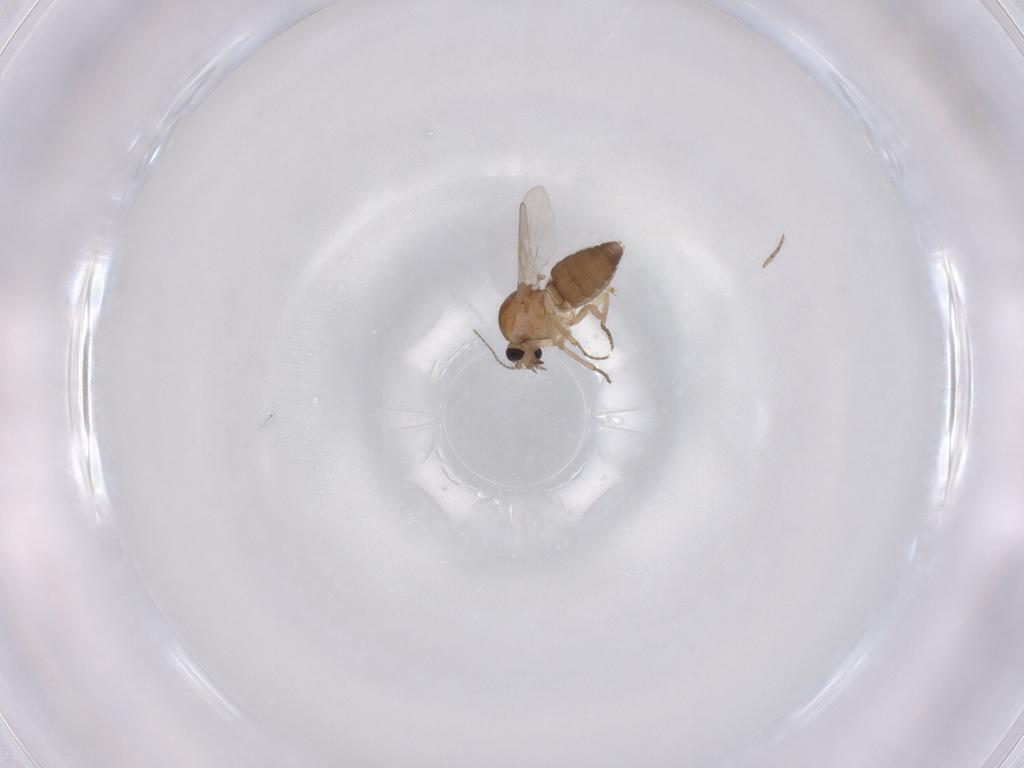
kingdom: Animalia
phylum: Arthropoda
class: Insecta
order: Diptera
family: Ceratopogonidae
